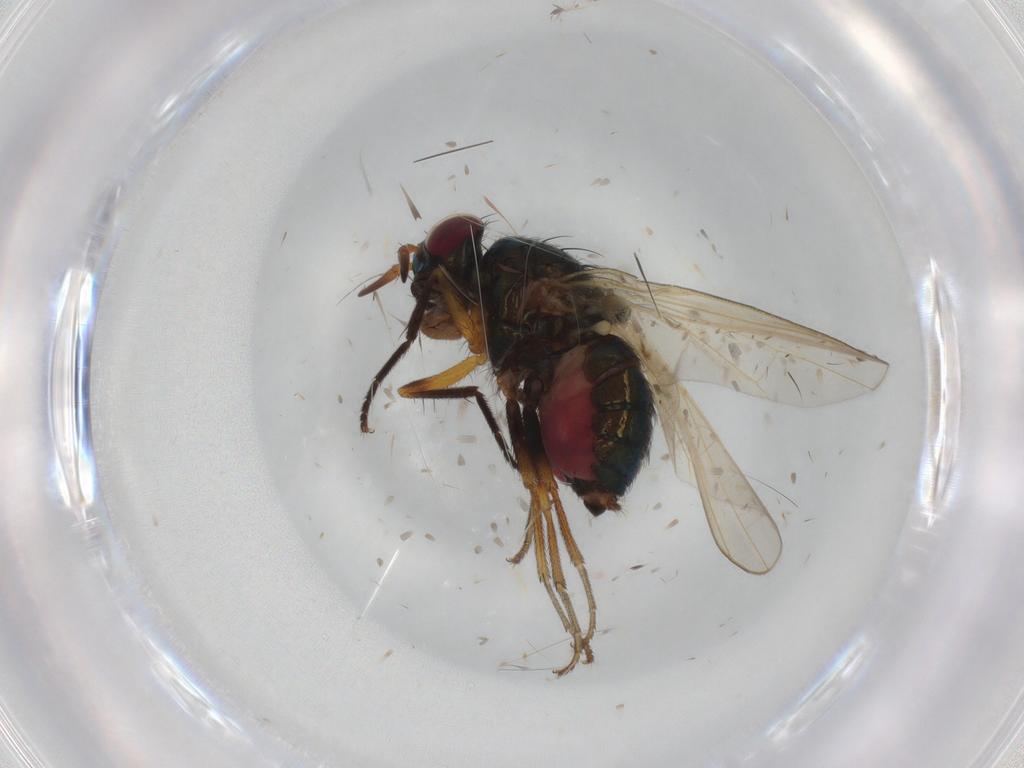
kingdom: Animalia
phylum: Arthropoda
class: Insecta
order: Diptera
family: Lauxaniidae
